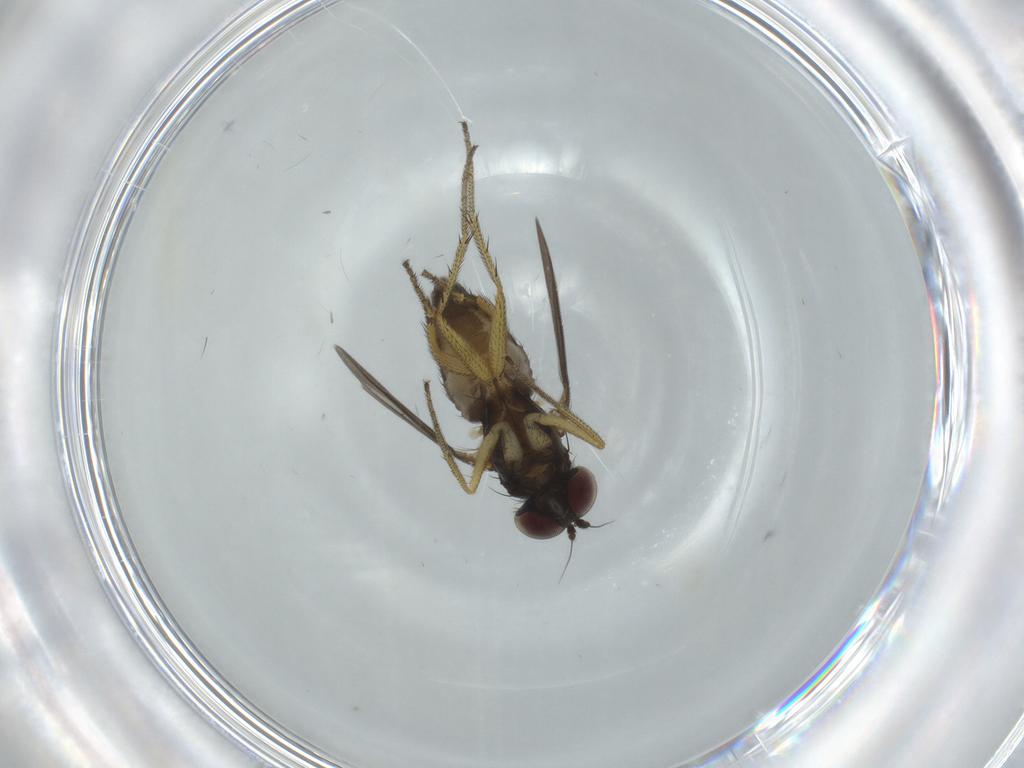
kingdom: Animalia
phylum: Arthropoda
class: Insecta
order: Diptera
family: Dolichopodidae
